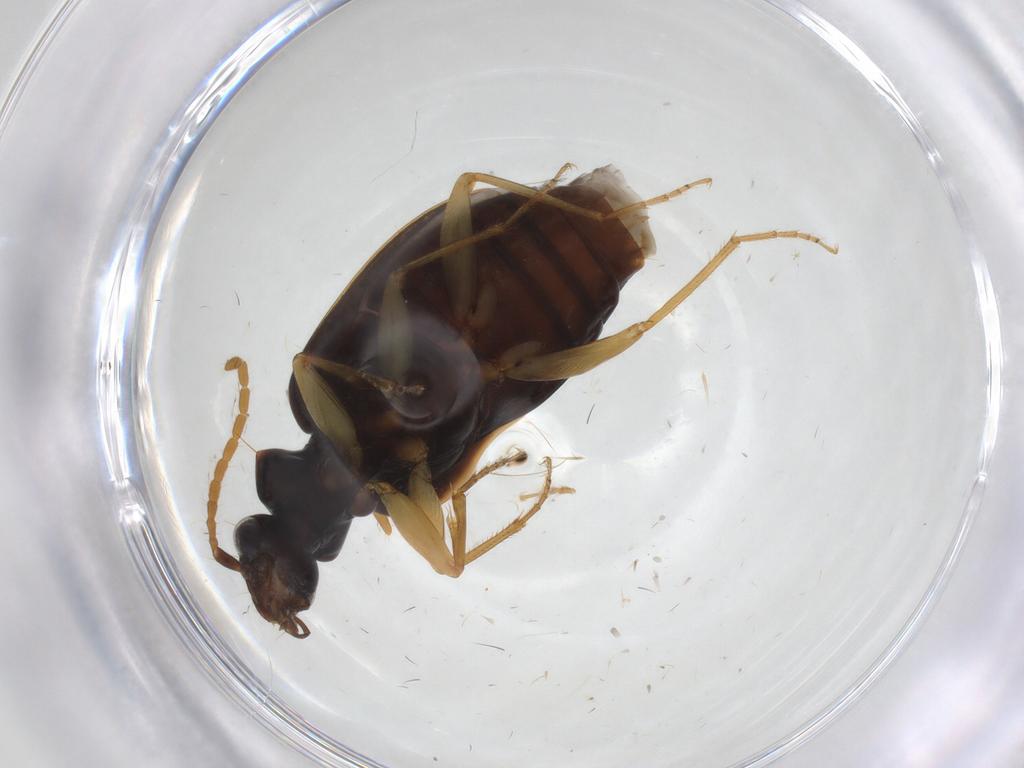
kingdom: Animalia
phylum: Arthropoda
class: Insecta
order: Coleoptera
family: Carabidae
